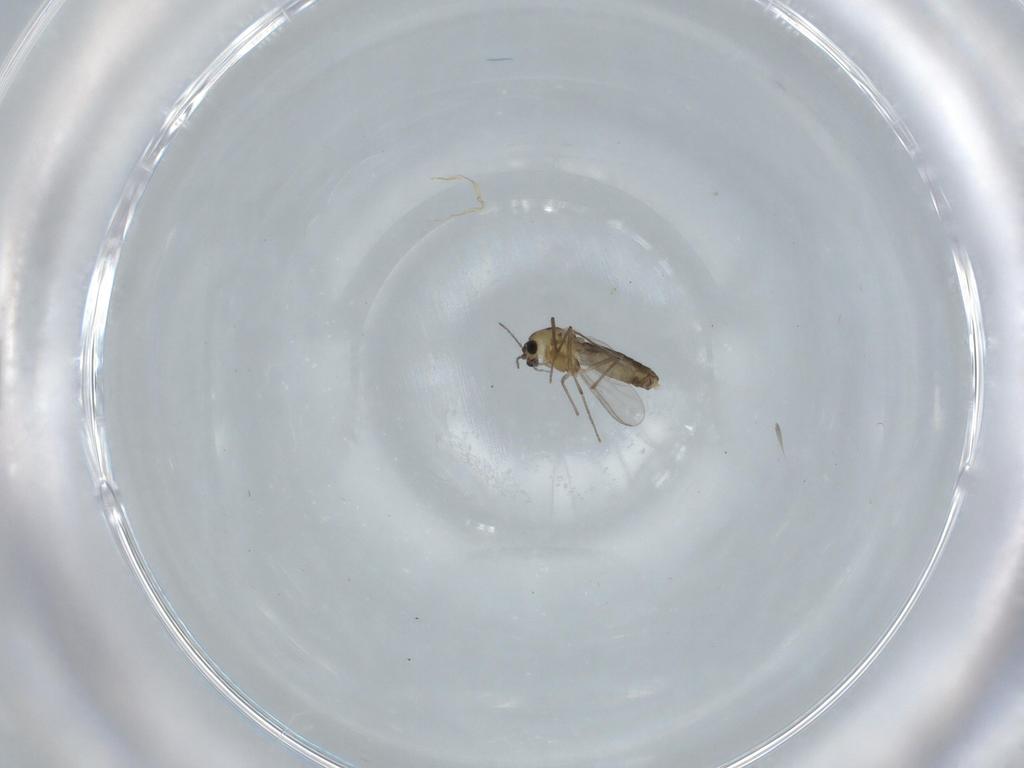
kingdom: Animalia
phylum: Arthropoda
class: Insecta
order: Diptera
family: Chironomidae
